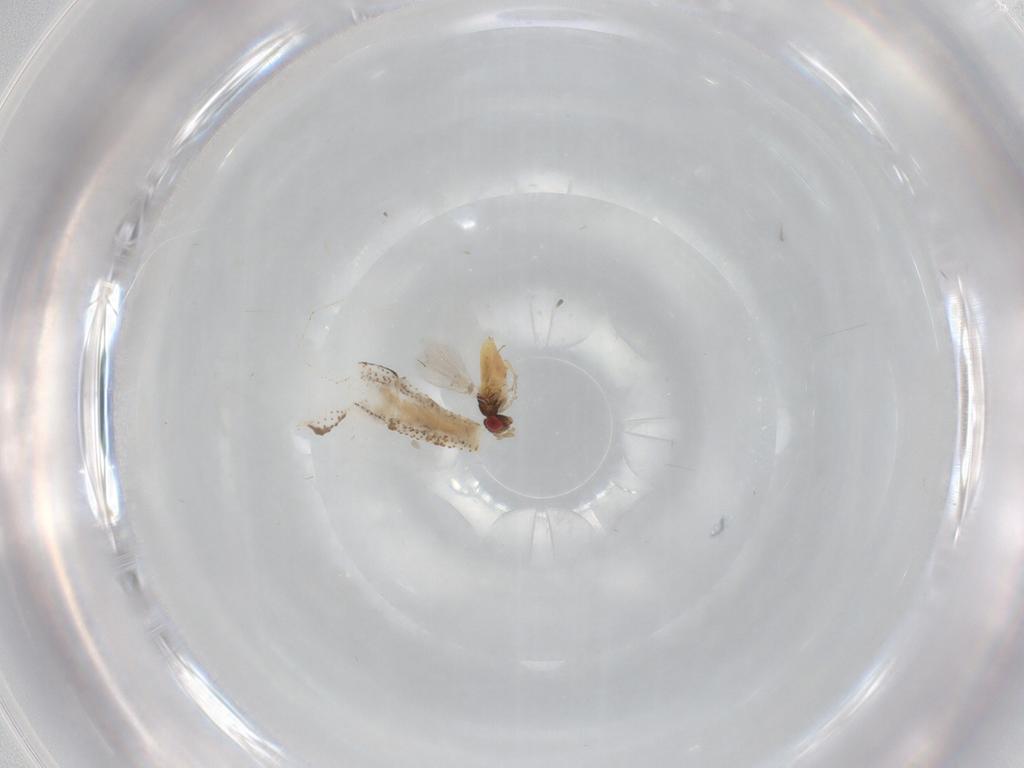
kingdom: Animalia
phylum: Arthropoda
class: Insecta
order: Hymenoptera
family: Trichogrammatidae
